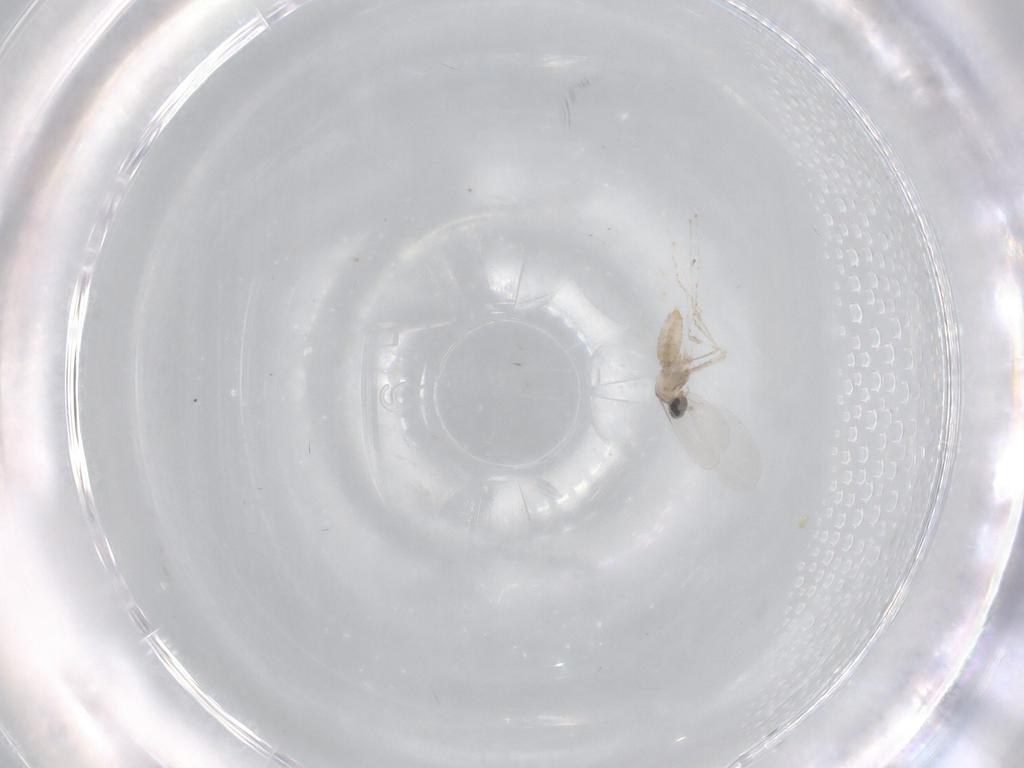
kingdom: Animalia
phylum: Arthropoda
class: Insecta
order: Diptera
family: Cecidomyiidae
